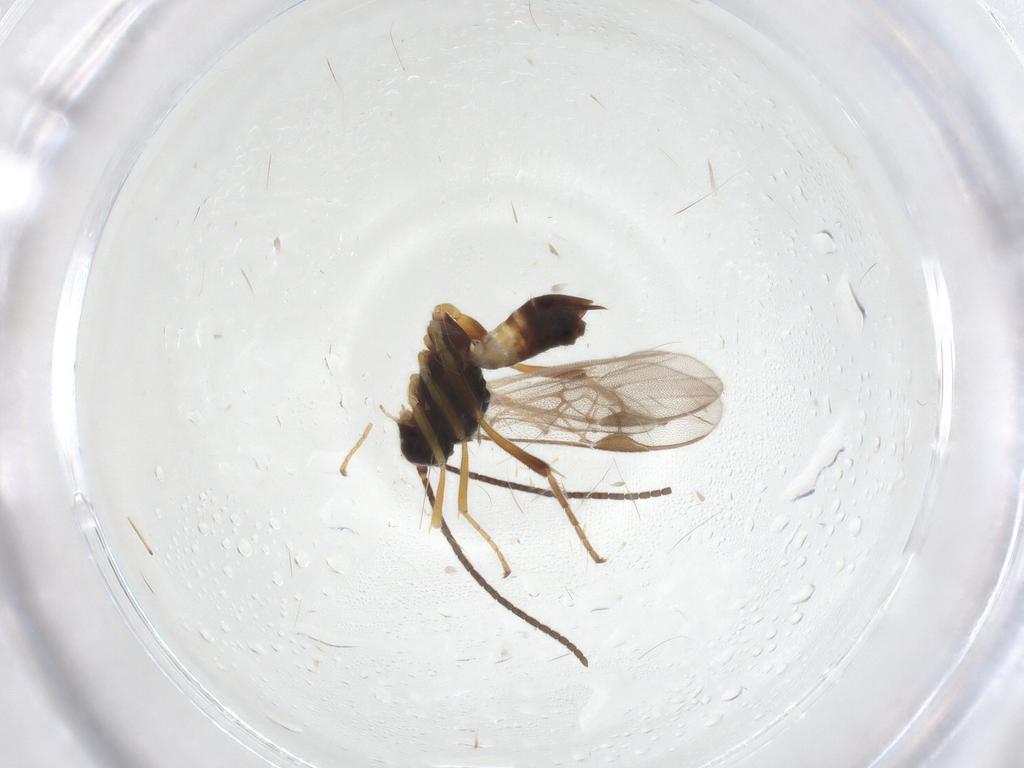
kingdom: Animalia
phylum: Arthropoda
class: Insecta
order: Hymenoptera
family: Braconidae
